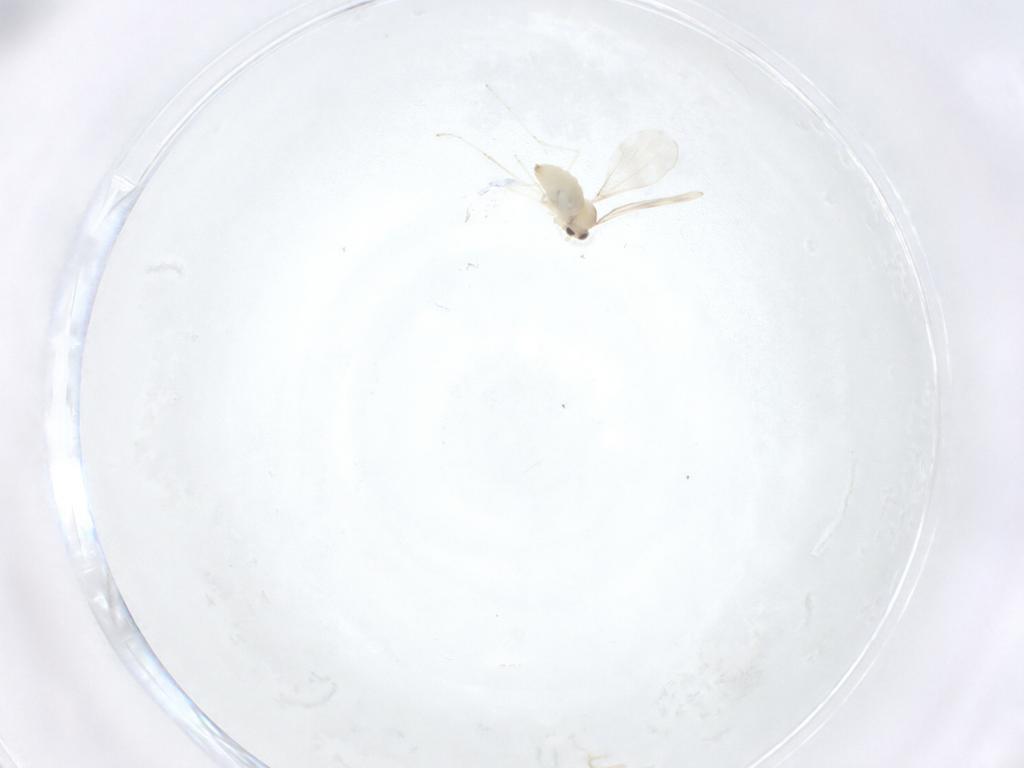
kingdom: Animalia
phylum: Arthropoda
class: Insecta
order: Diptera
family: Cecidomyiidae
